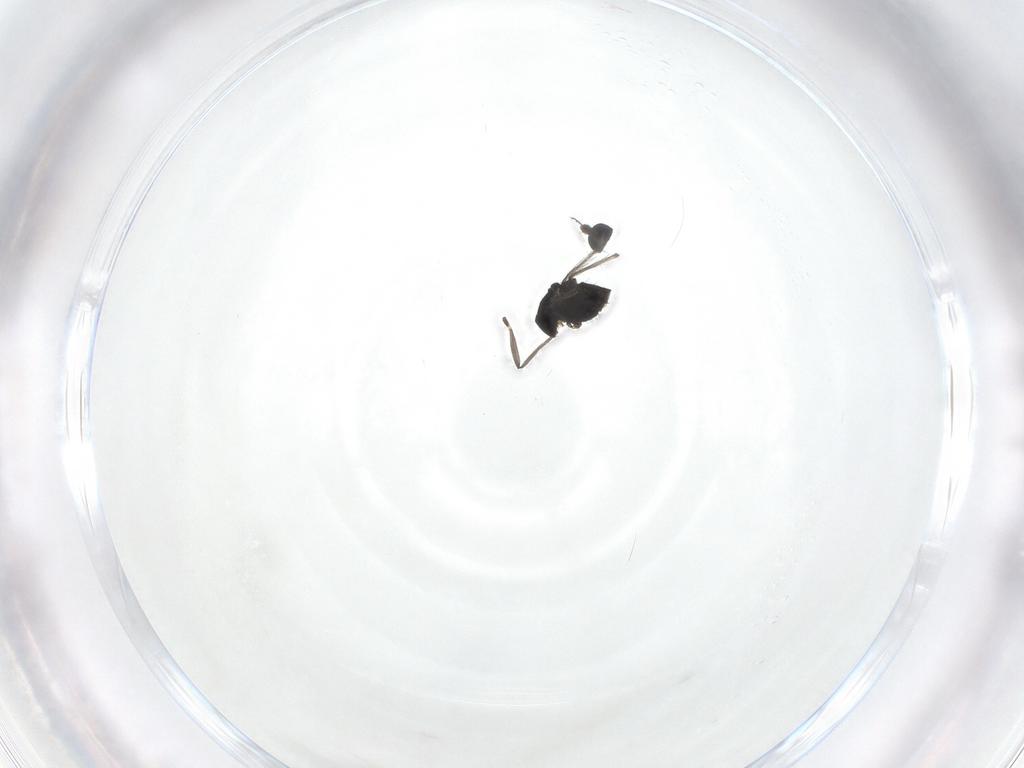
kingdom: Animalia
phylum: Arthropoda
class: Insecta
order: Diptera
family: Chironomidae
